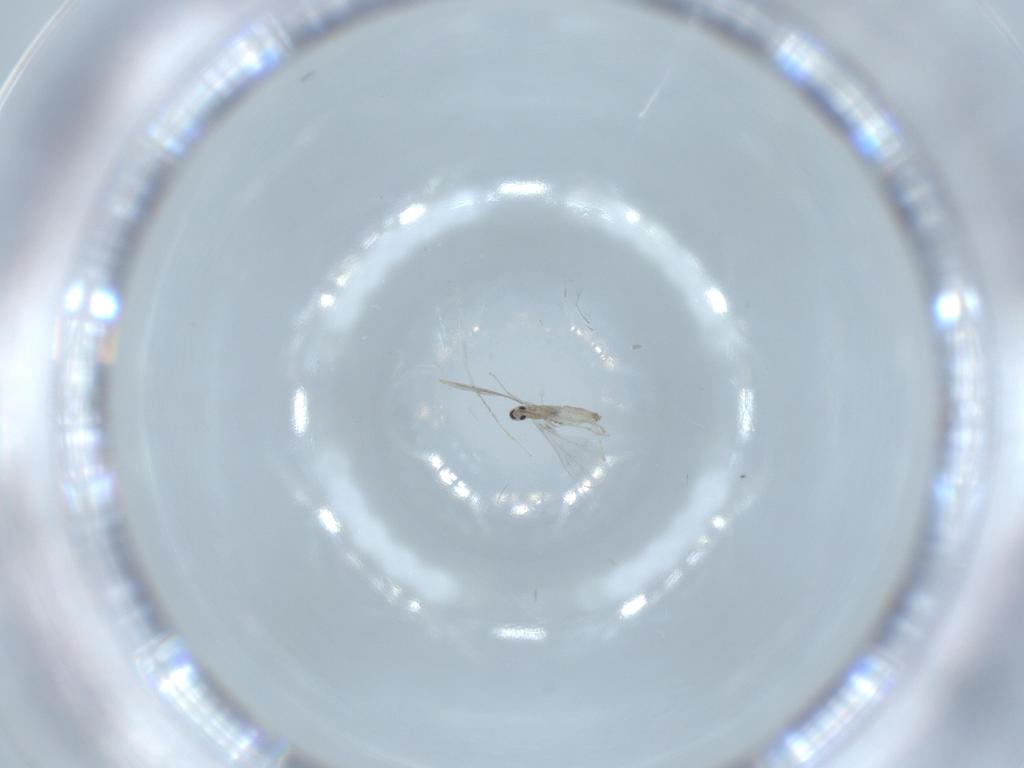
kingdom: Animalia
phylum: Arthropoda
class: Insecta
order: Diptera
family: Cecidomyiidae
